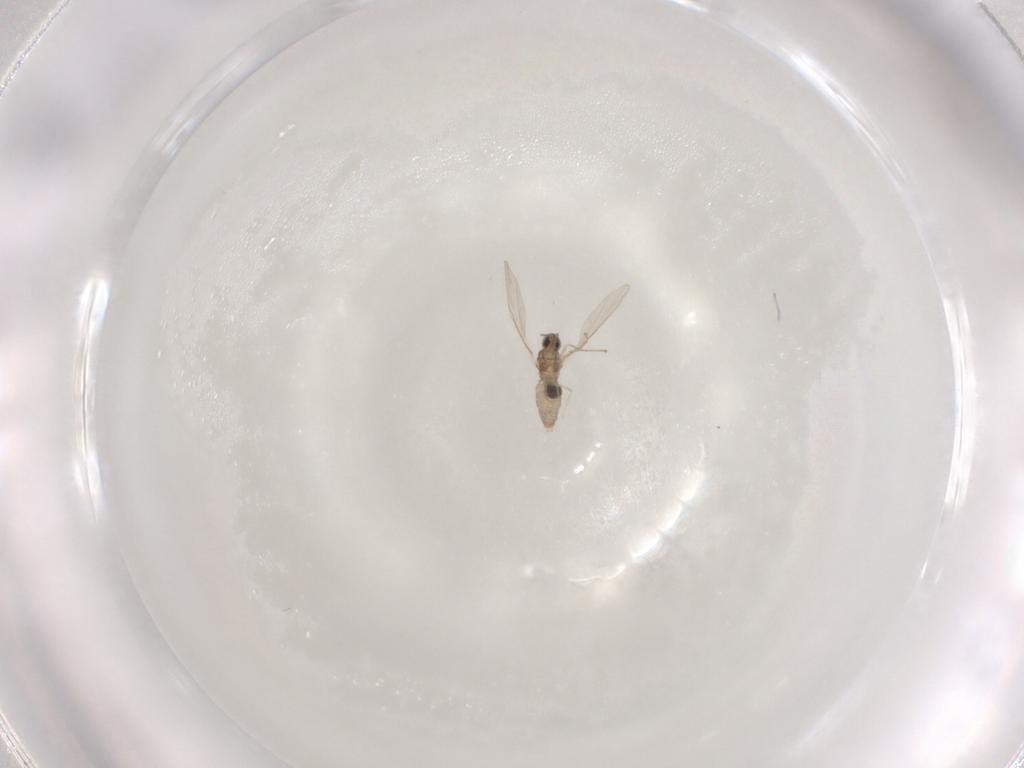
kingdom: Animalia
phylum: Arthropoda
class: Insecta
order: Diptera
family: Cecidomyiidae
